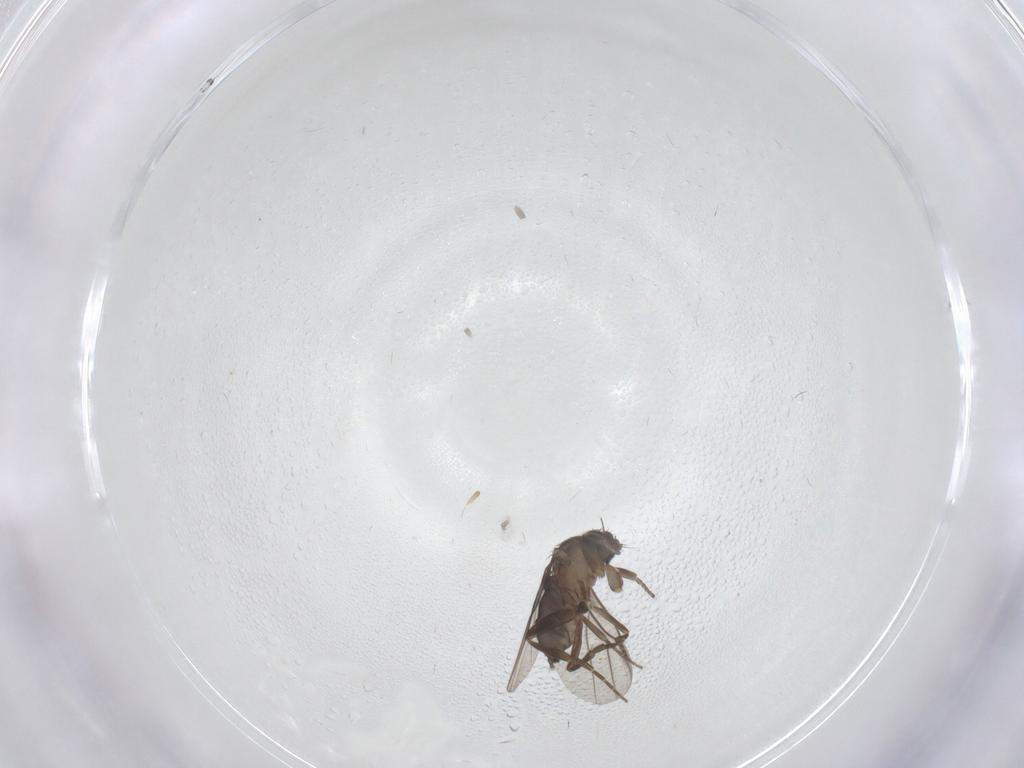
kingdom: Animalia
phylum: Arthropoda
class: Insecta
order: Diptera
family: Phoridae
